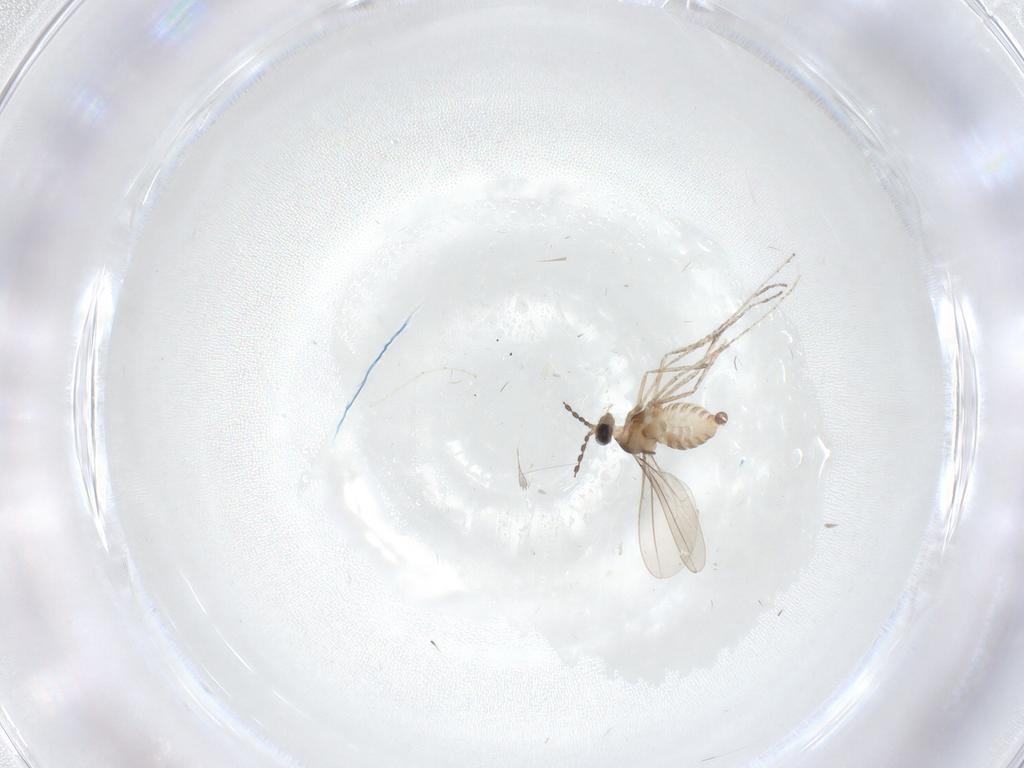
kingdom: Animalia
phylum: Arthropoda
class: Insecta
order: Diptera
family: Cecidomyiidae
